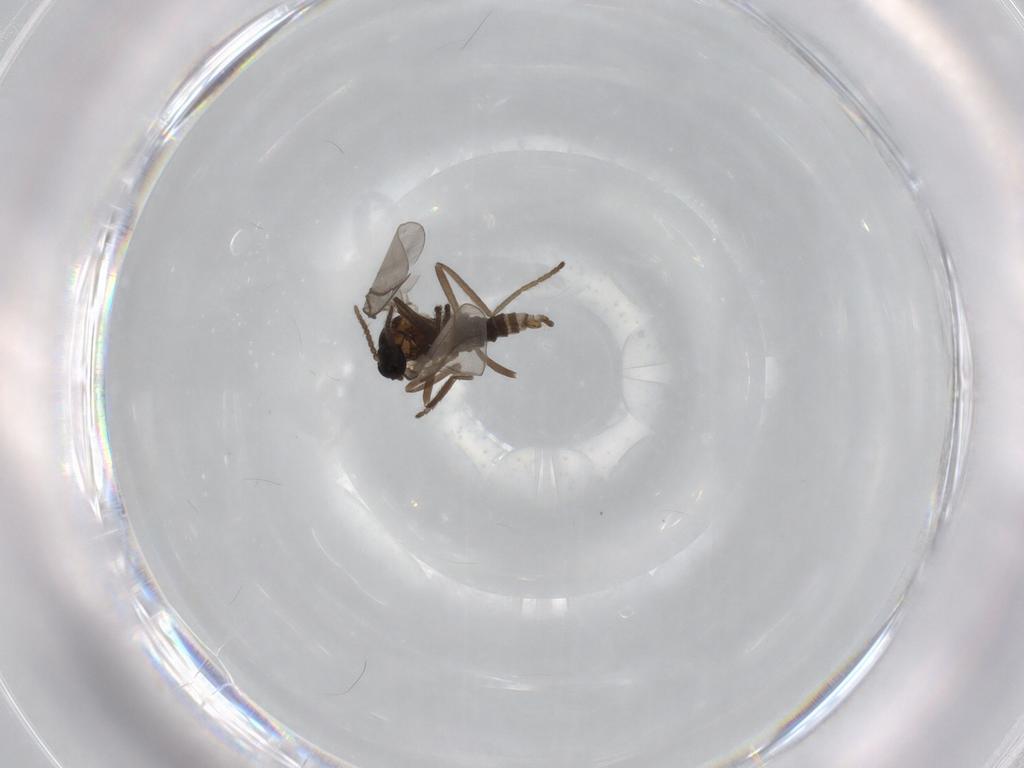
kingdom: Animalia
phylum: Arthropoda
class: Insecta
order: Diptera
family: Cecidomyiidae
